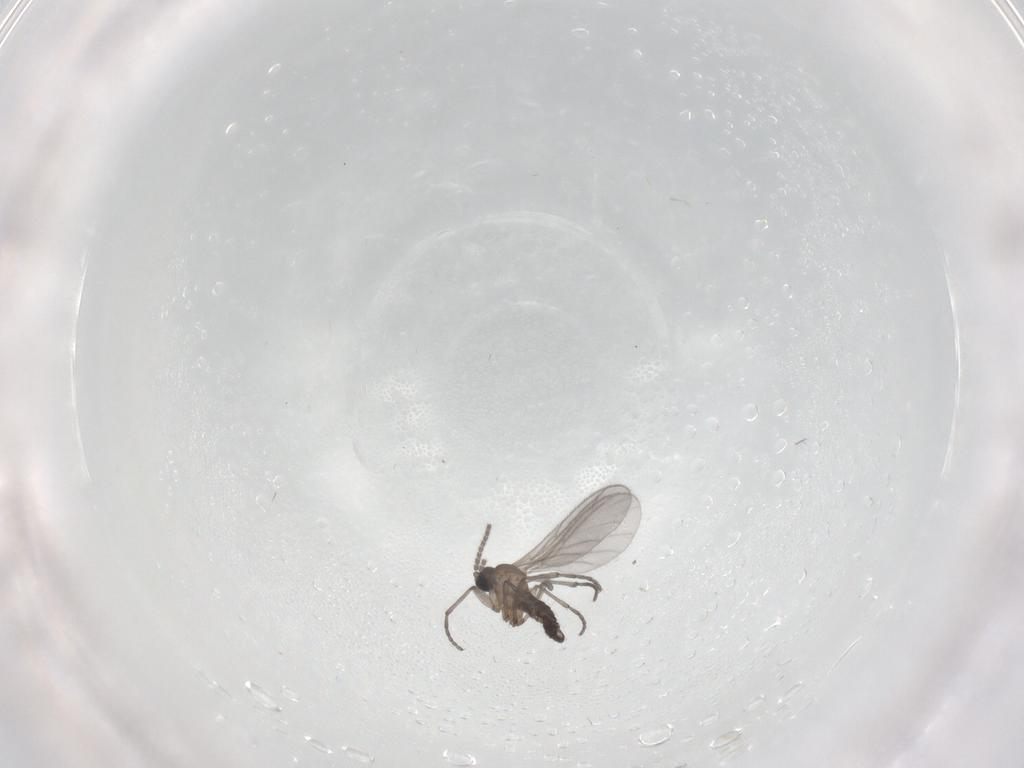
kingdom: Animalia
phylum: Arthropoda
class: Insecta
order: Diptera
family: Sciaridae
